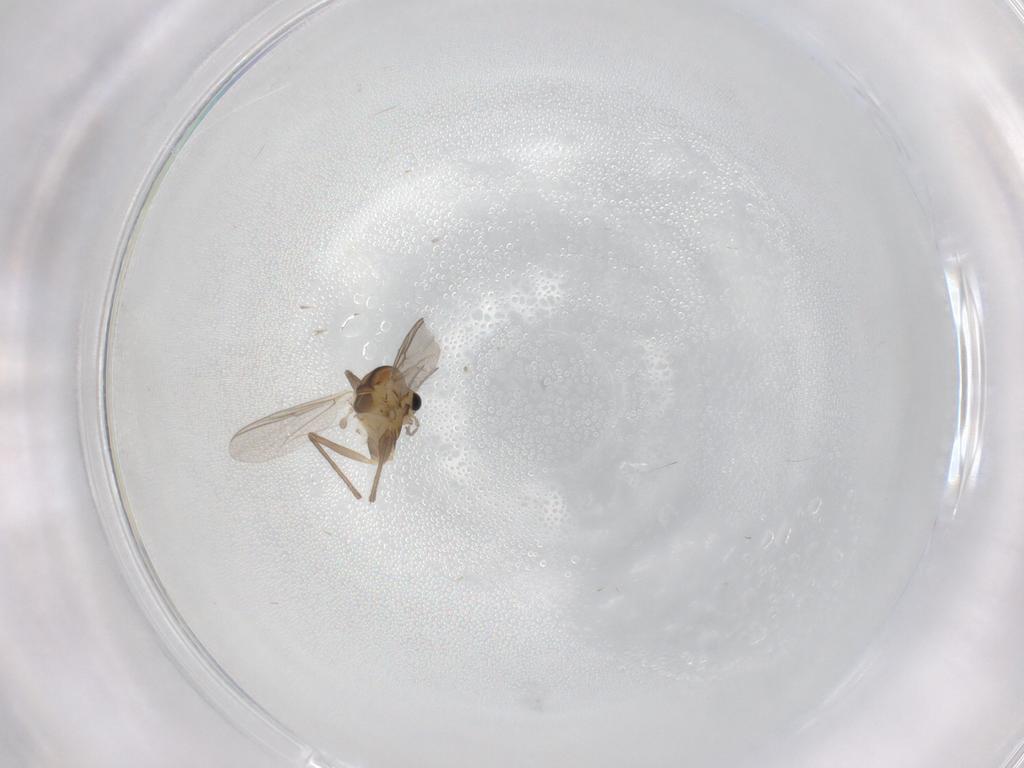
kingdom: Animalia
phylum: Arthropoda
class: Insecta
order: Diptera
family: Chironomidae
